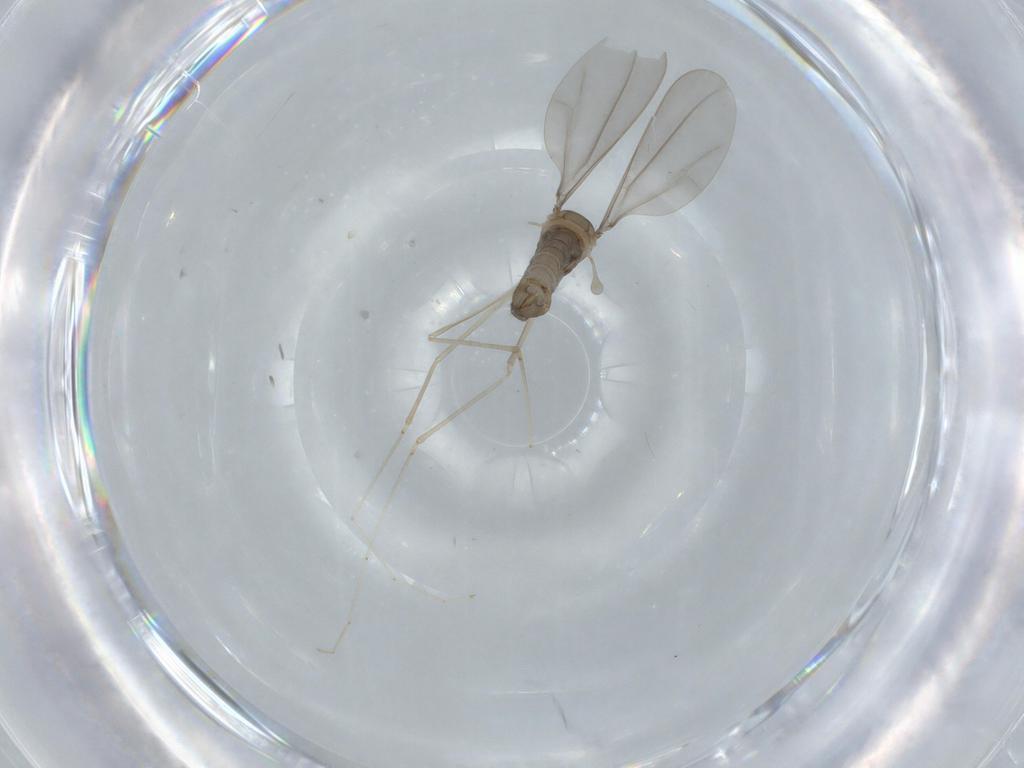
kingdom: Animalia
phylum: Arthropoda
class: Insecta
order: Diptera
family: Cecidomyiidae
